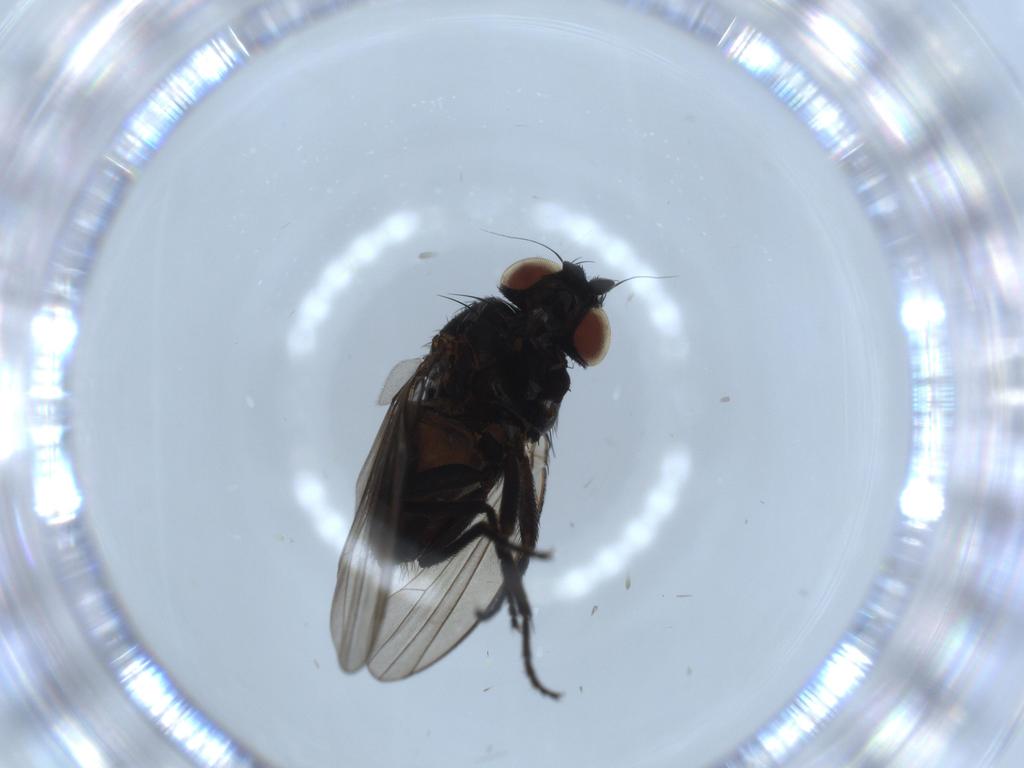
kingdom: Animalia
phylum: Arthropoda
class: Insecta
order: Diptera
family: Milichiidae
